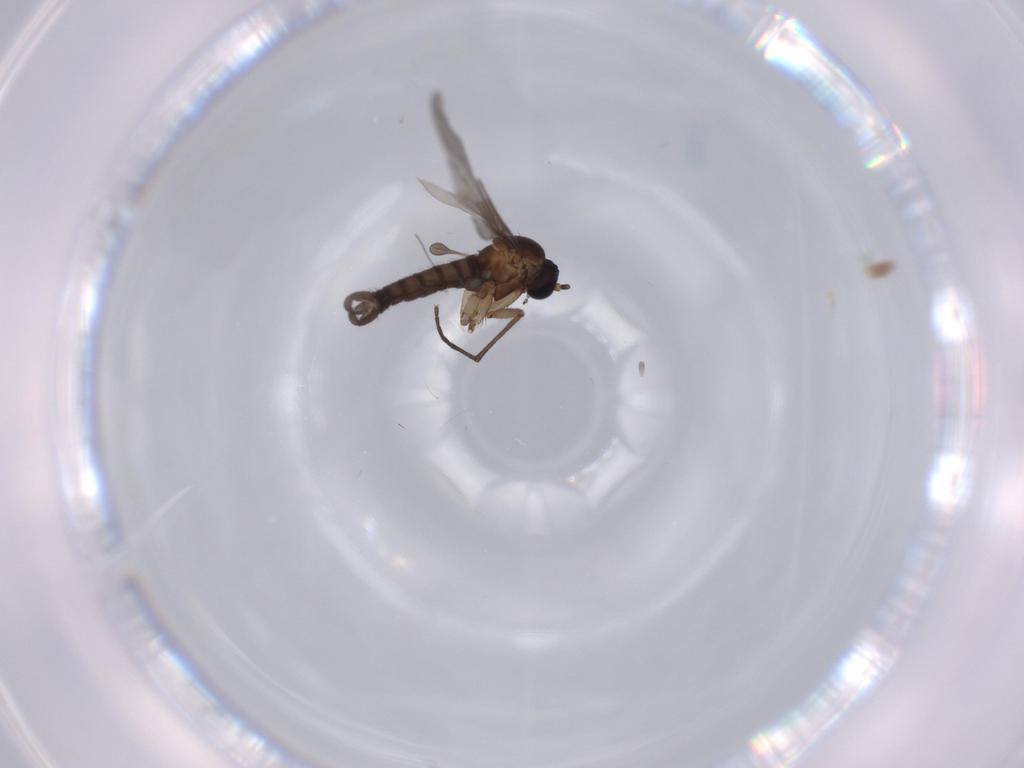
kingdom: Animalia
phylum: Arthropoda
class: Insecta
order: Diptera
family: Sciaridae
